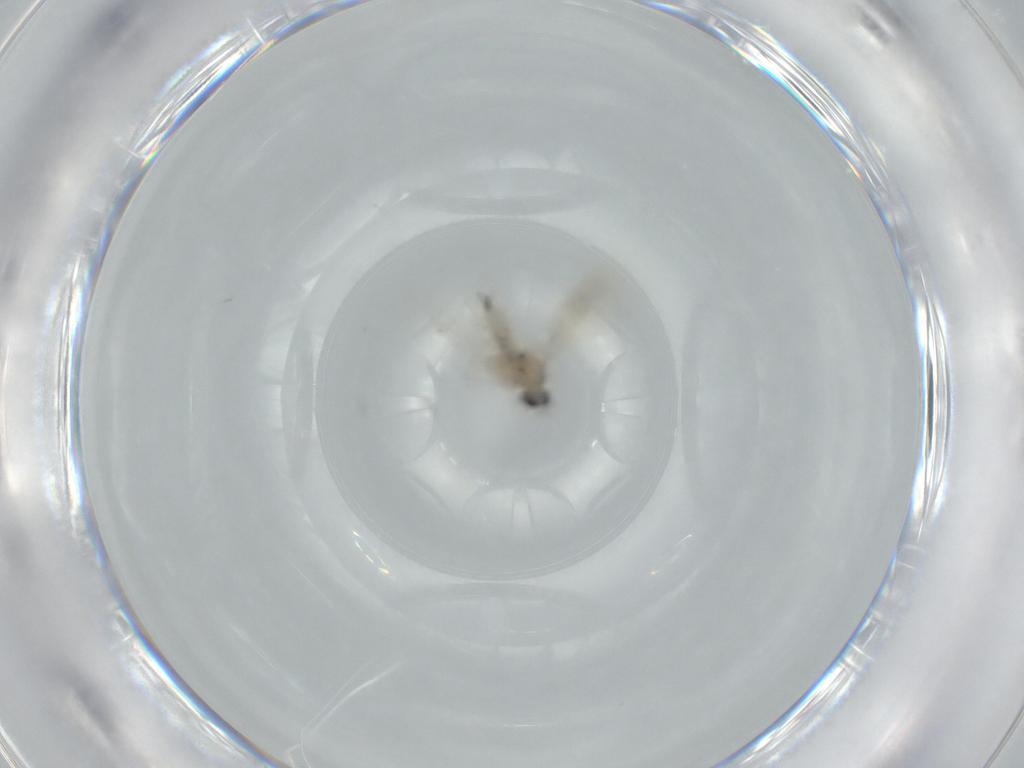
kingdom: Animalia
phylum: Arthropoda
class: Insecta
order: Diptera
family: Cecidomyiidae
